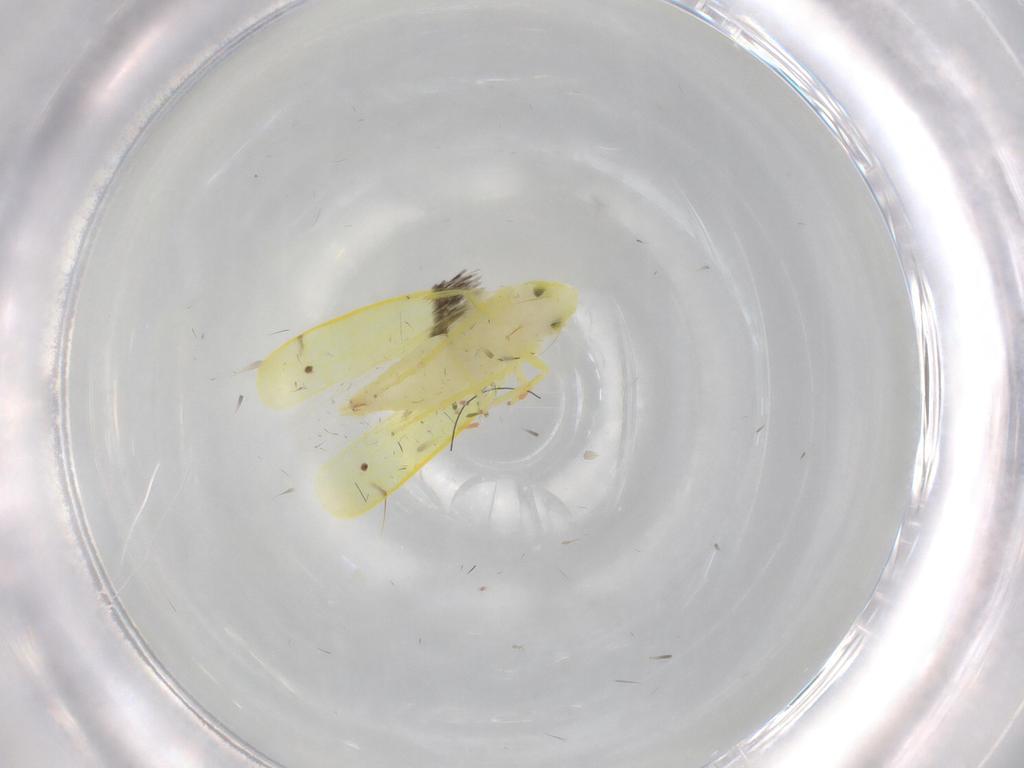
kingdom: Animalia
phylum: Arthropoda
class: Insecta
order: Hemiptera
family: Cicadellidae
